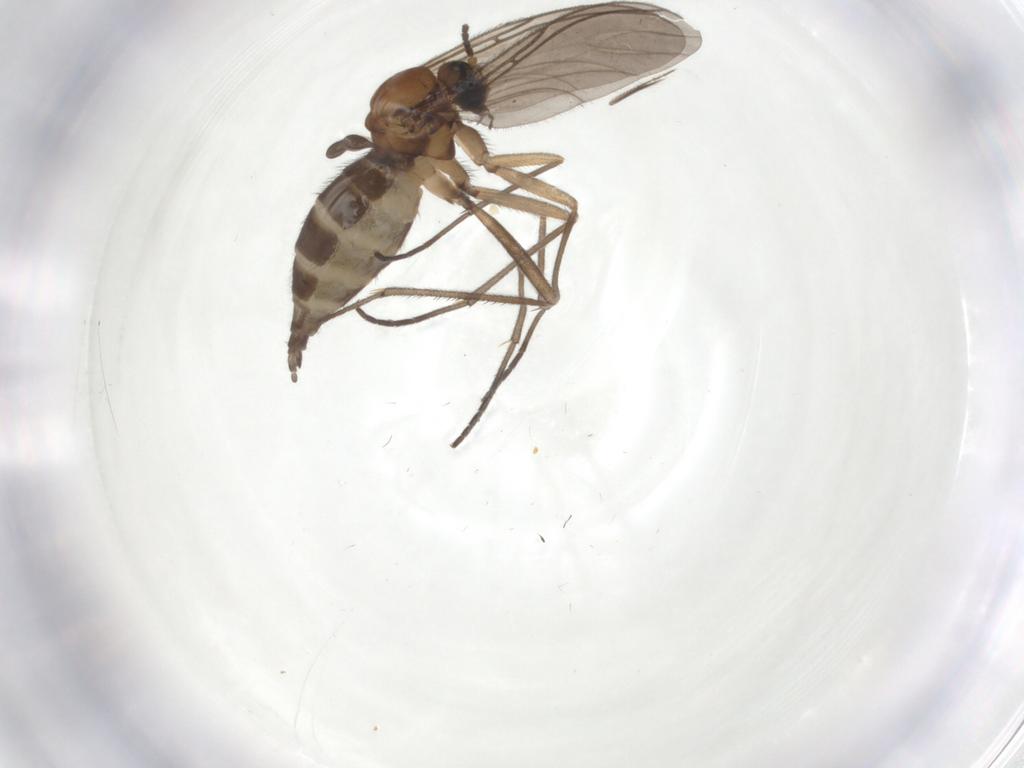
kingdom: Animalia
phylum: Arthropoda
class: Insecta
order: Diptera
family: Sciaridae
